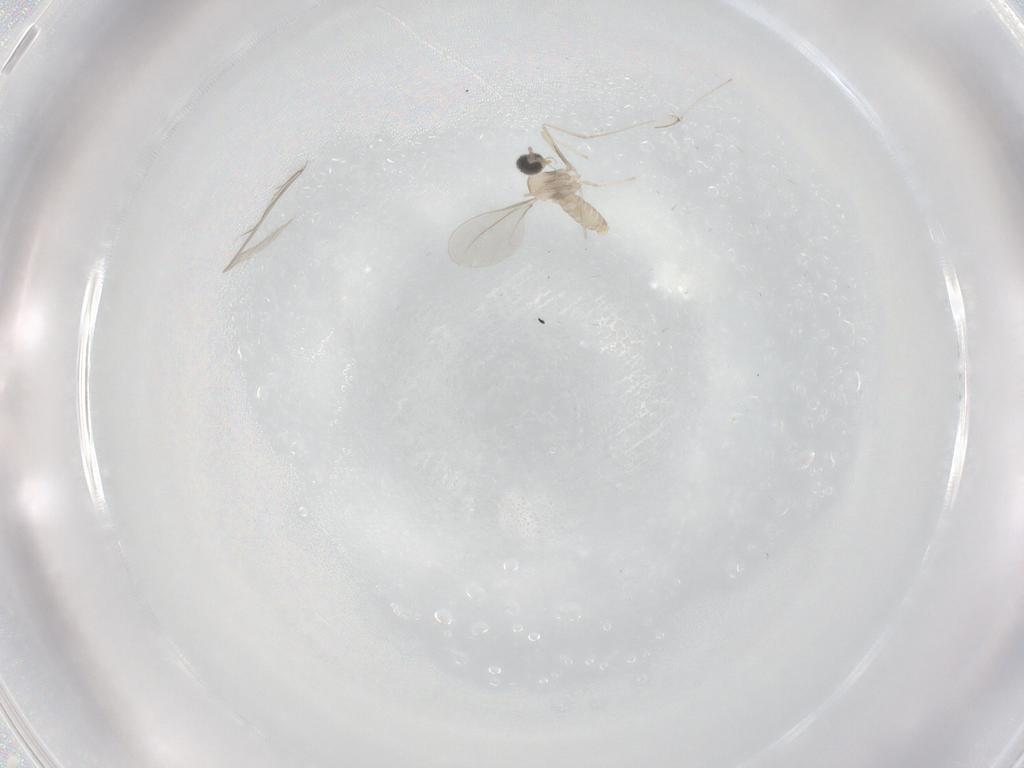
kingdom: Animalia
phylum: Arthropoda
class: Insecta
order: Diptera
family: Cecidomyiidae
